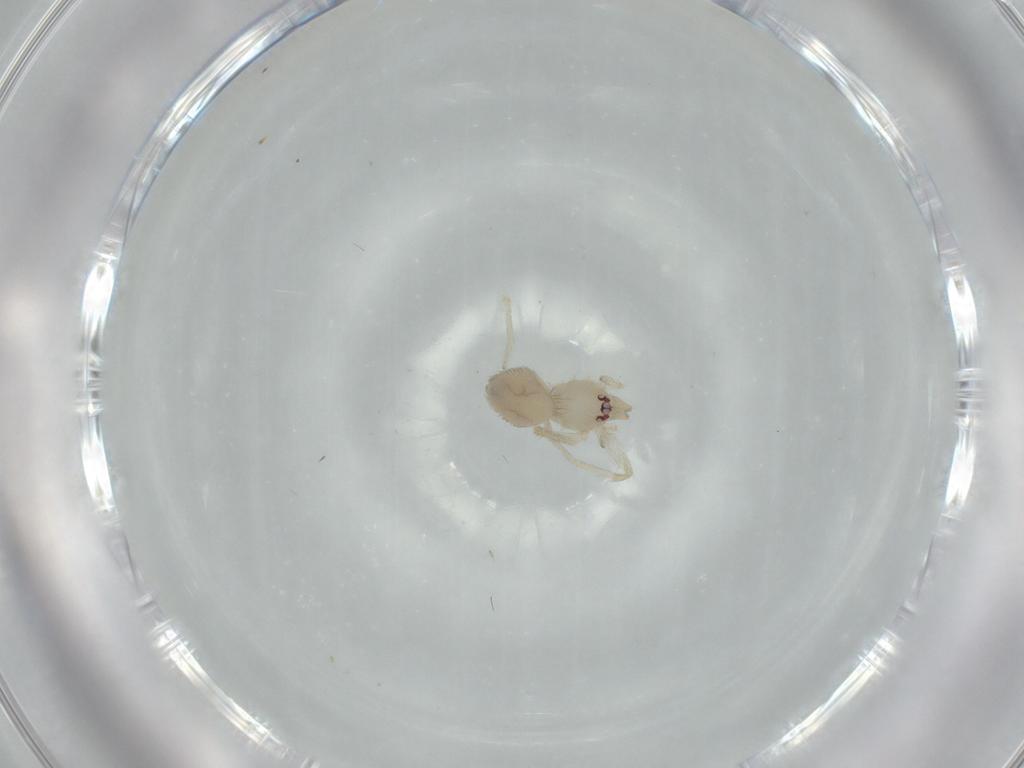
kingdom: Animalia
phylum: Arthropoda
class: Arachnida
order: Araneae
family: Oonopidae
